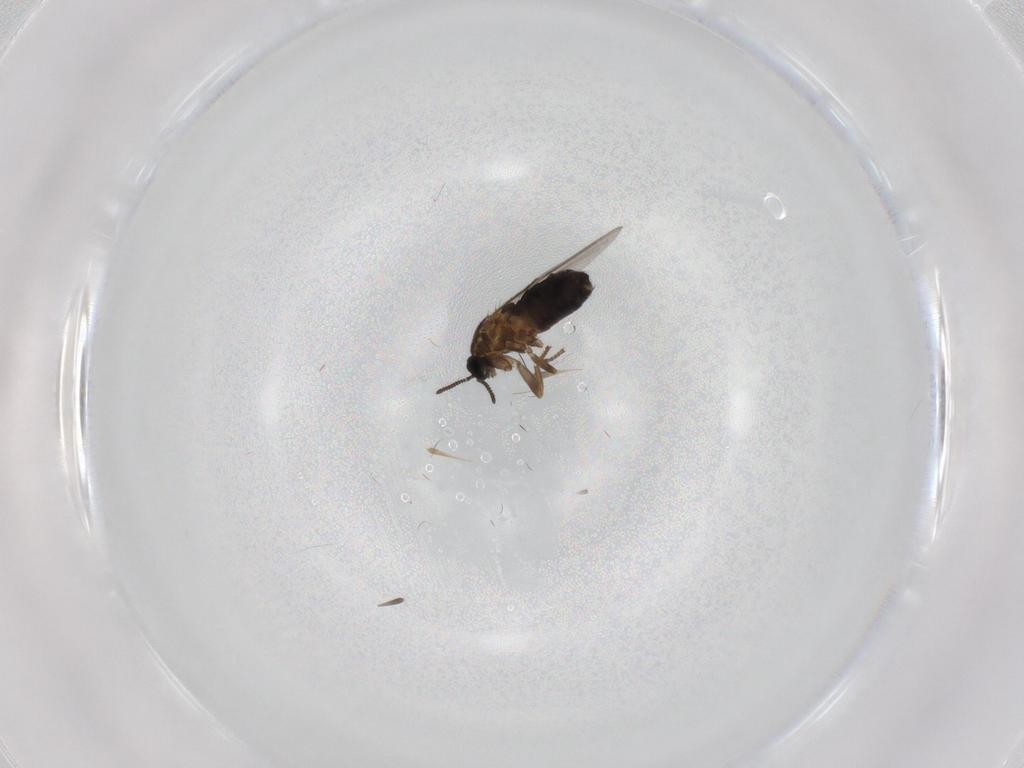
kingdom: Animalia
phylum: Arthropoda
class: Insecta
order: Diptera
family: Scatopsidae
